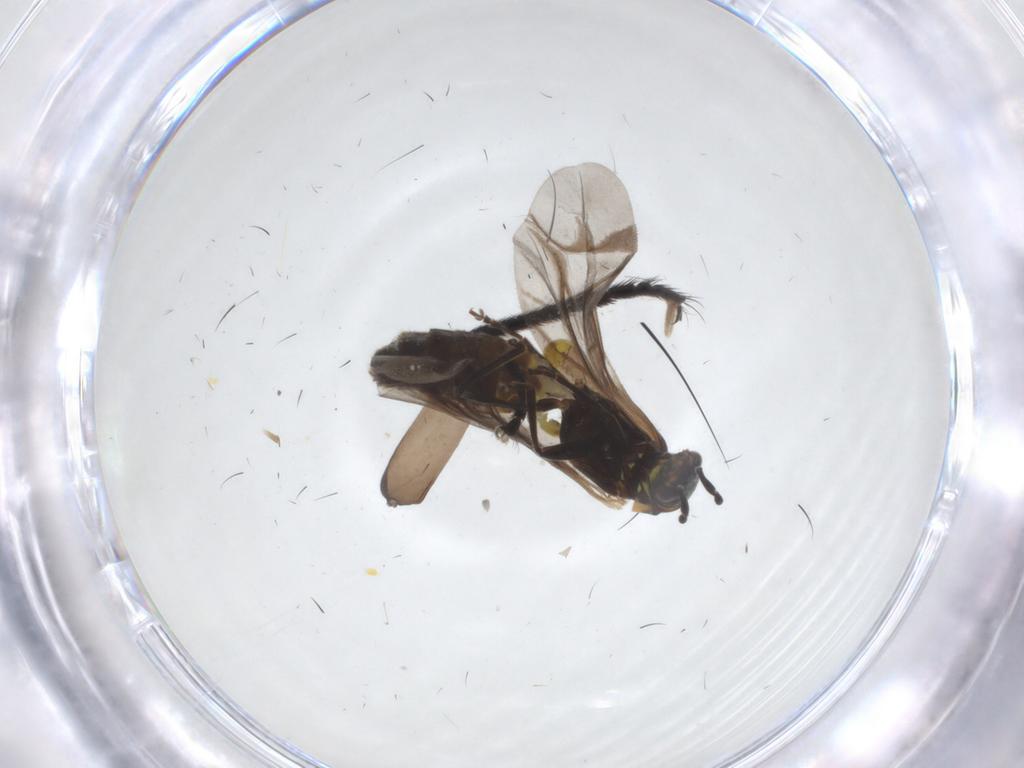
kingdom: Animalia
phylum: Arthropoda
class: Insecta
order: Coleoptera
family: Cantharidae
